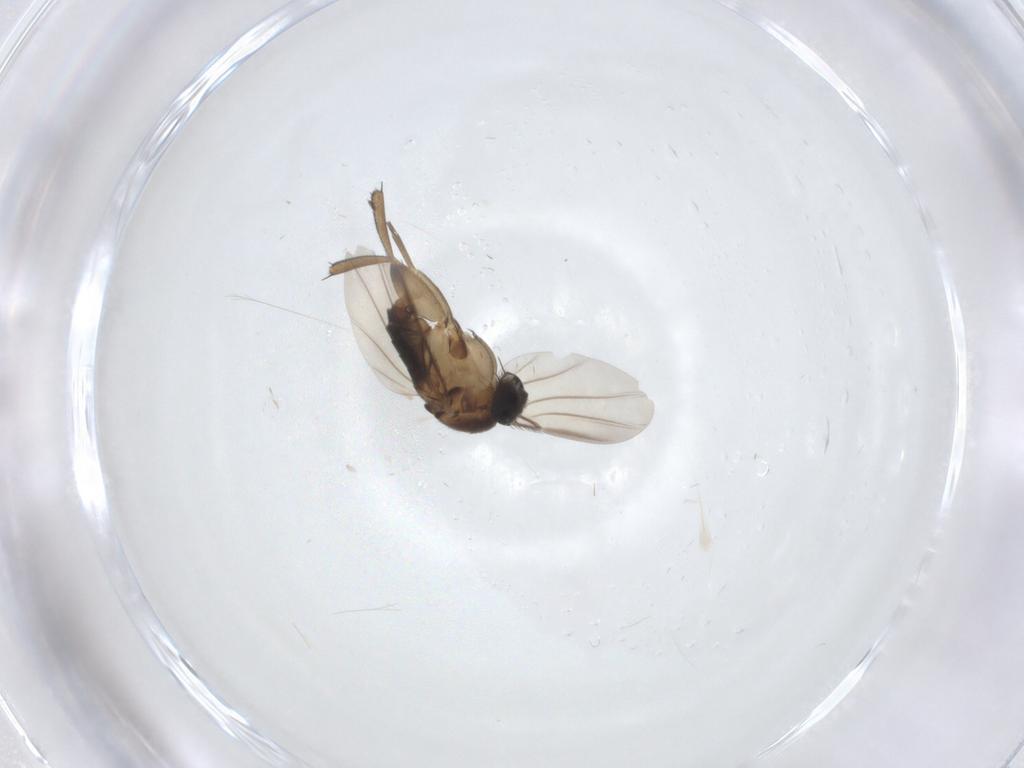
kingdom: Animalia
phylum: Arthropoda
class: Insecta
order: Diptera
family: Phoridae
